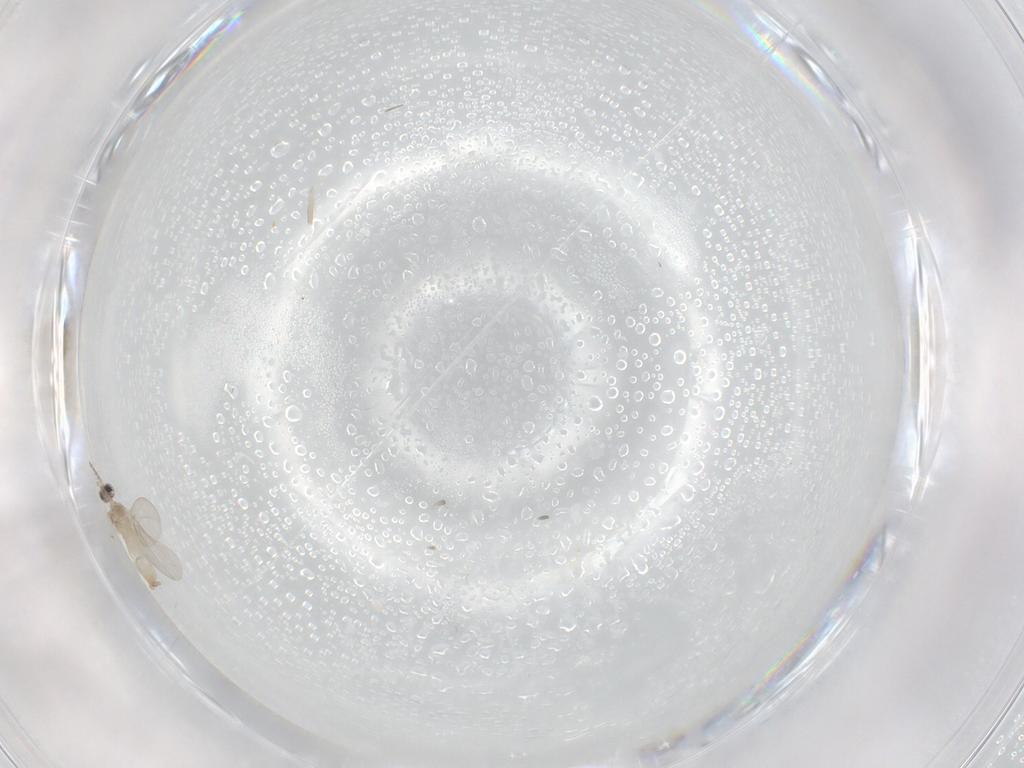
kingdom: Animalia
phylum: Arthropoda
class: Insecta
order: Diptera
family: Cecidomyiidae
